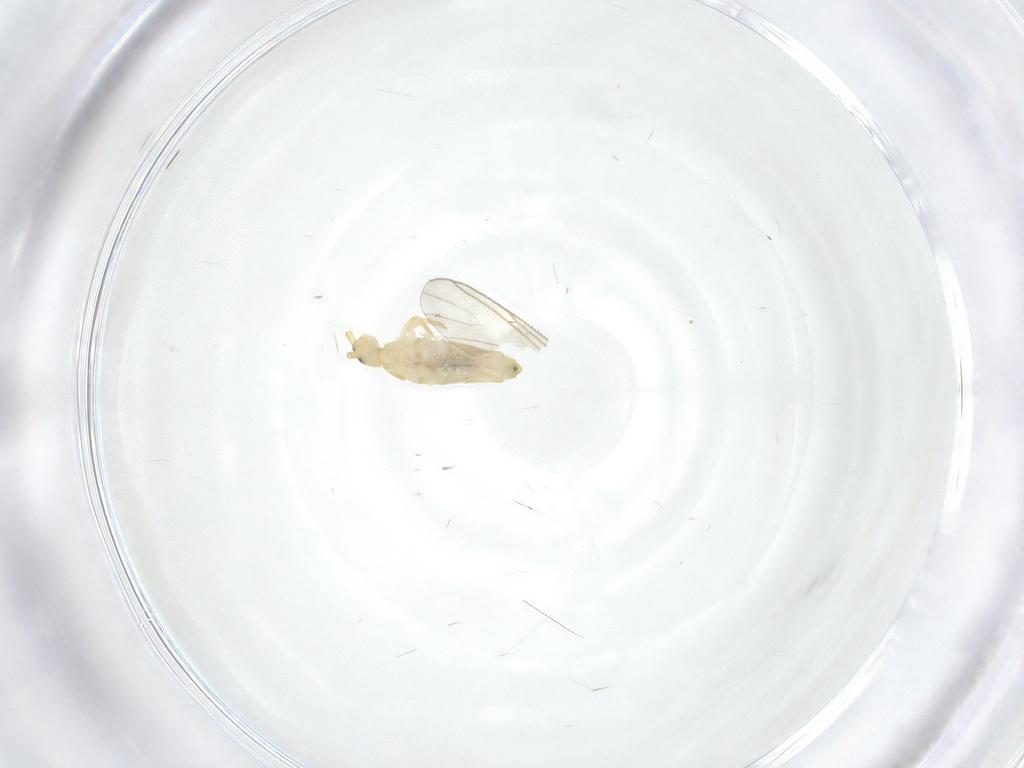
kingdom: Animalia
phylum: Arthropoda
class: Collembola
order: Entomobryomorpha
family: Entomobryidae
